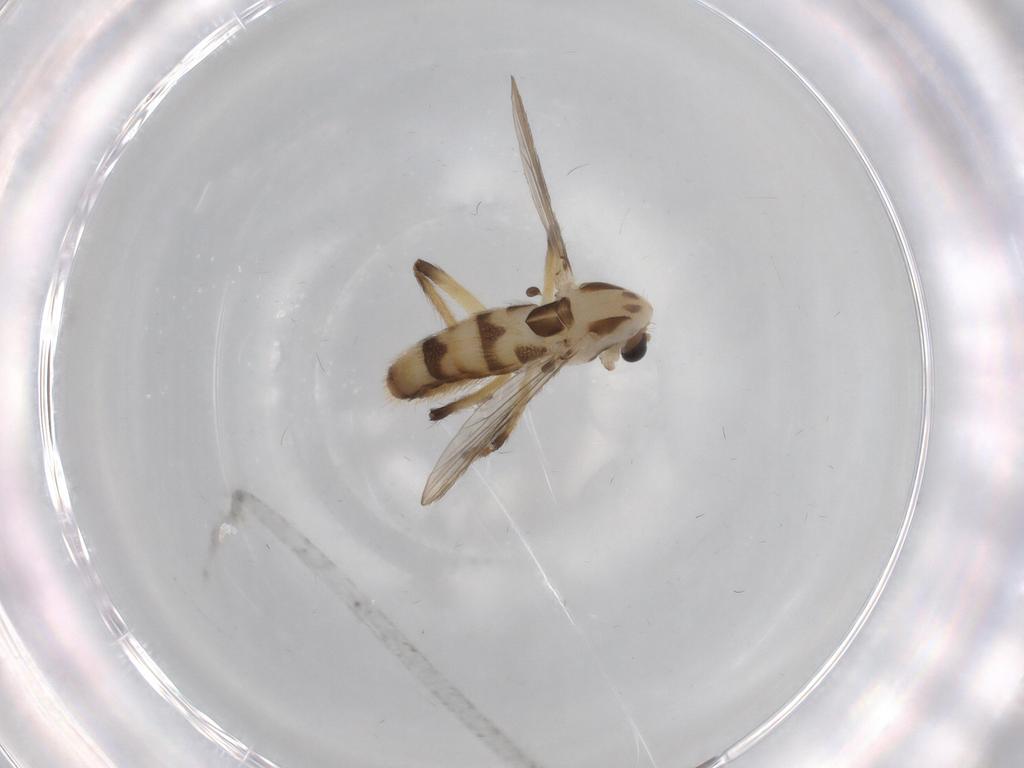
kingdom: Animalia
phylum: Arthropoda
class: Insecta
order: Diptera
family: Chironomidae
